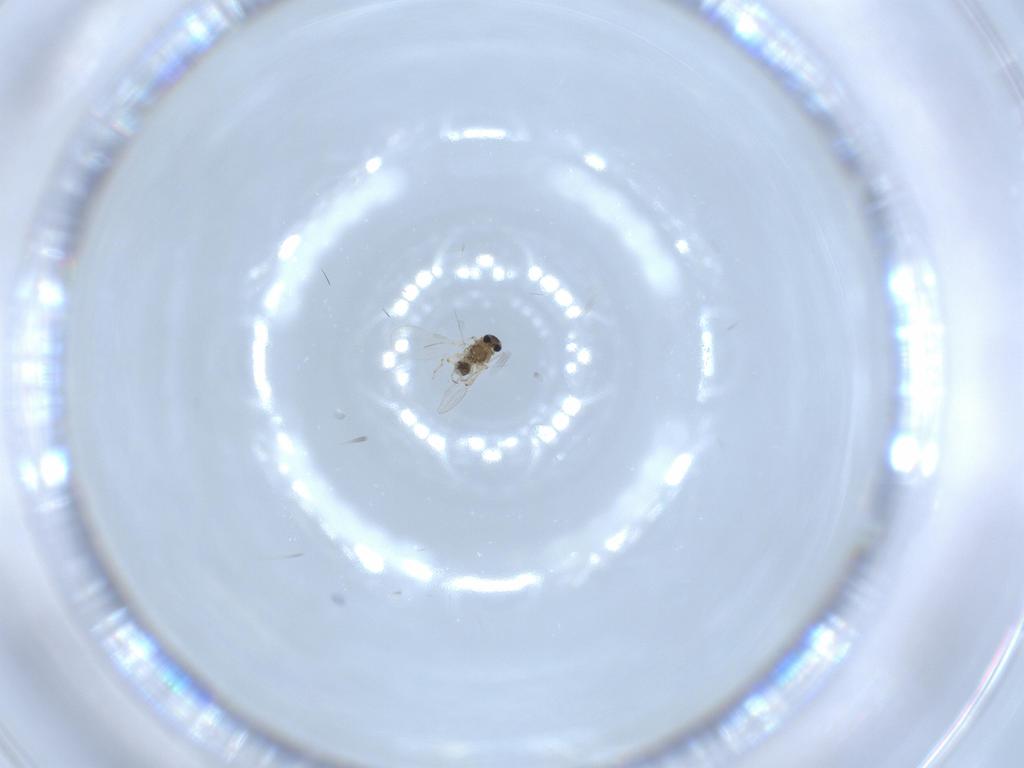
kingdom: Animalia
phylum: Arthropoda
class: Insecta
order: Diptera
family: Chironomidae
